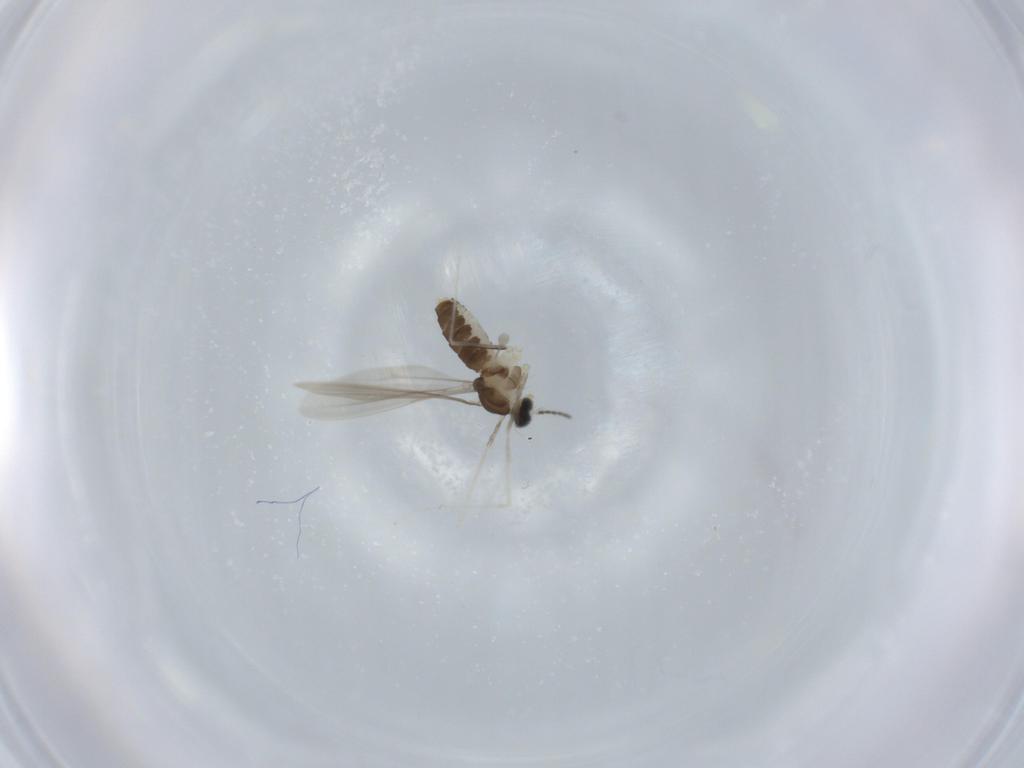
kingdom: Animalia
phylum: Arthropoda
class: Insecta
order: Diptera
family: Cecidomyiidae
